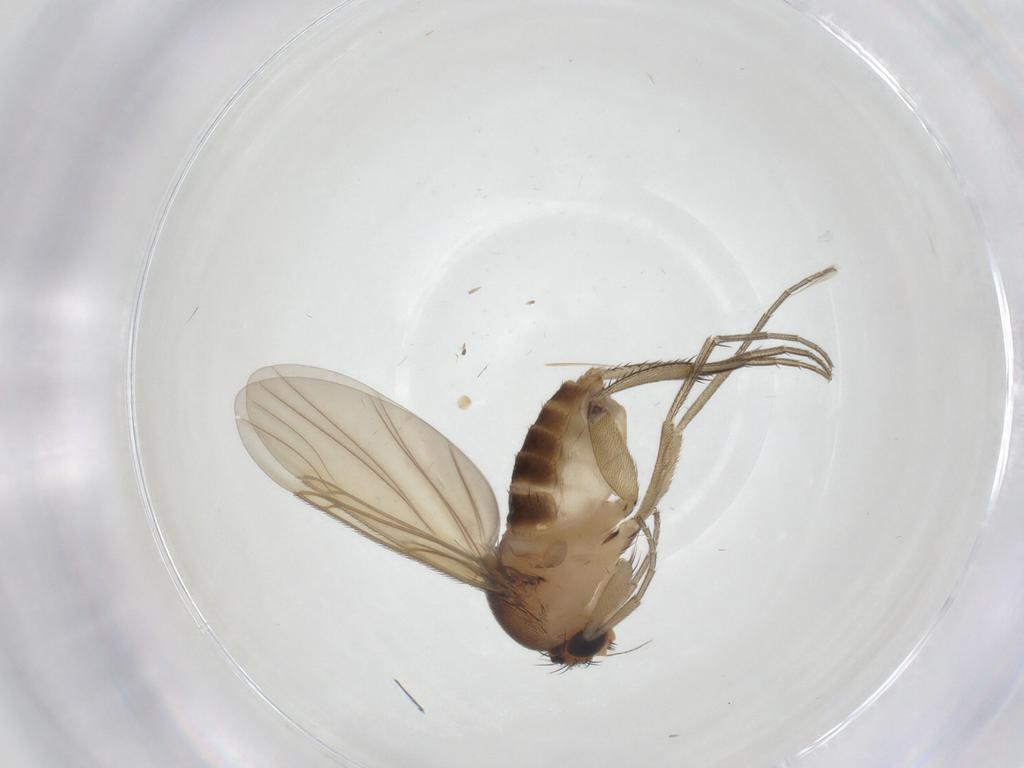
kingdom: Animalia
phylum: Arthropoda
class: Insecta
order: Diptera
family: Phoridae
